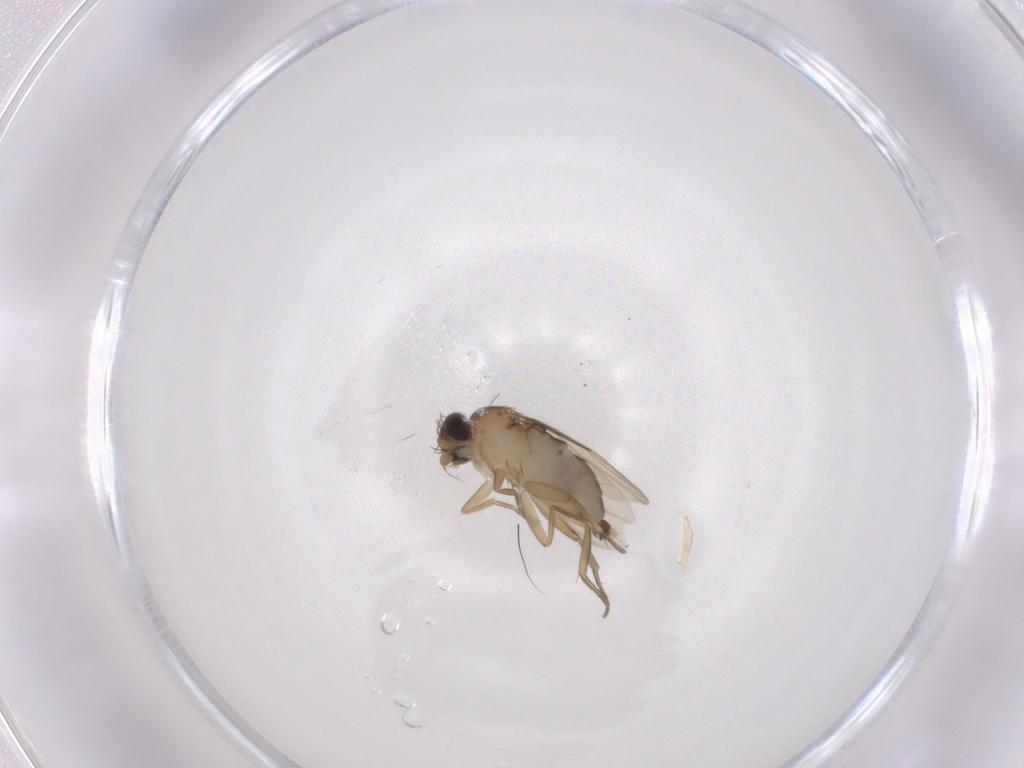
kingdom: Animalia
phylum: Arthropoda
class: Insecta
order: Diptera
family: Phoridae
